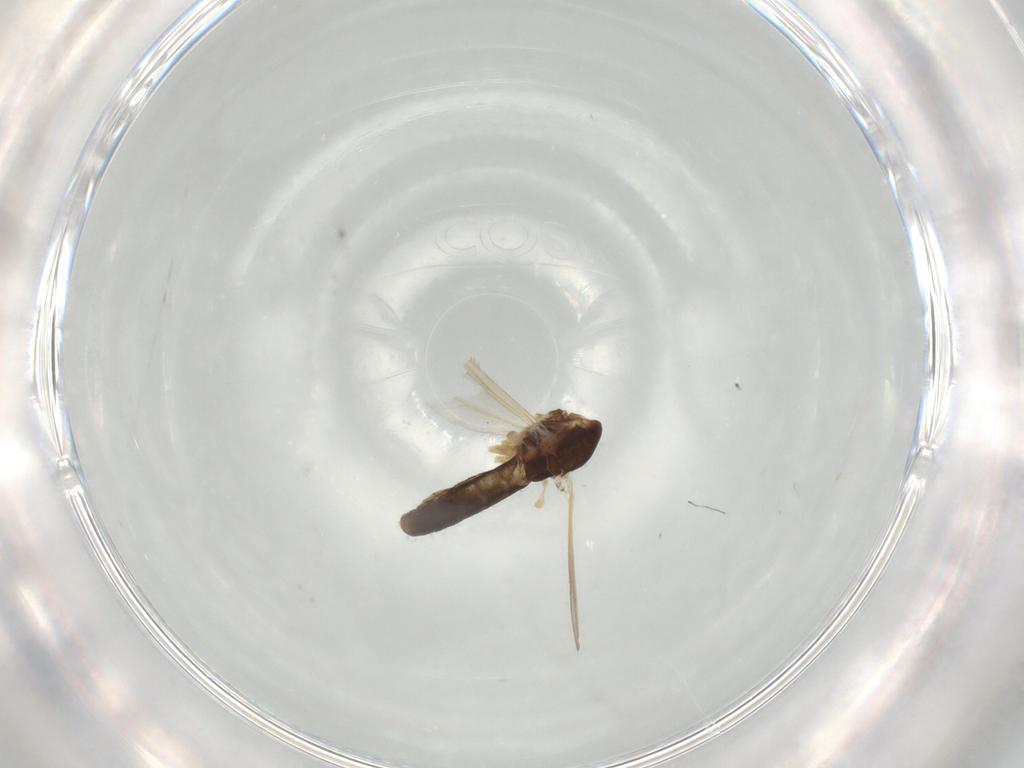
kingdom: Animalia
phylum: Arthropoda
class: Insecta
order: Diptera
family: Chironomidae
